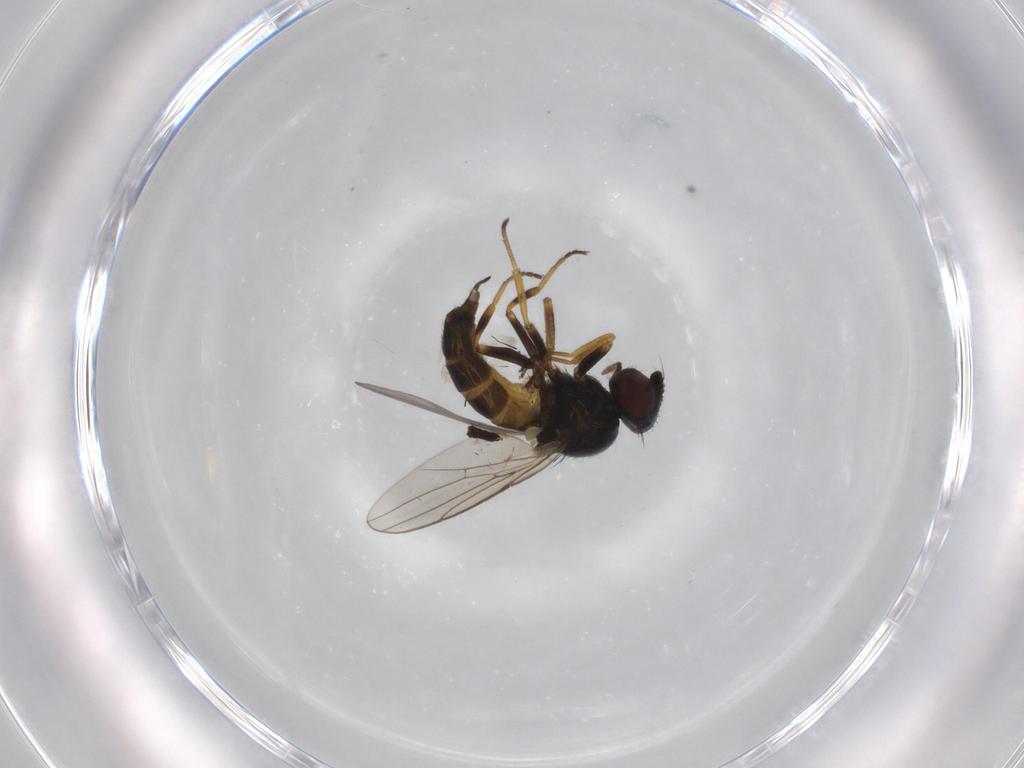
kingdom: Animalia
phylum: Arthropoda
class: Insecta
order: Diptera
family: Chloropidae
